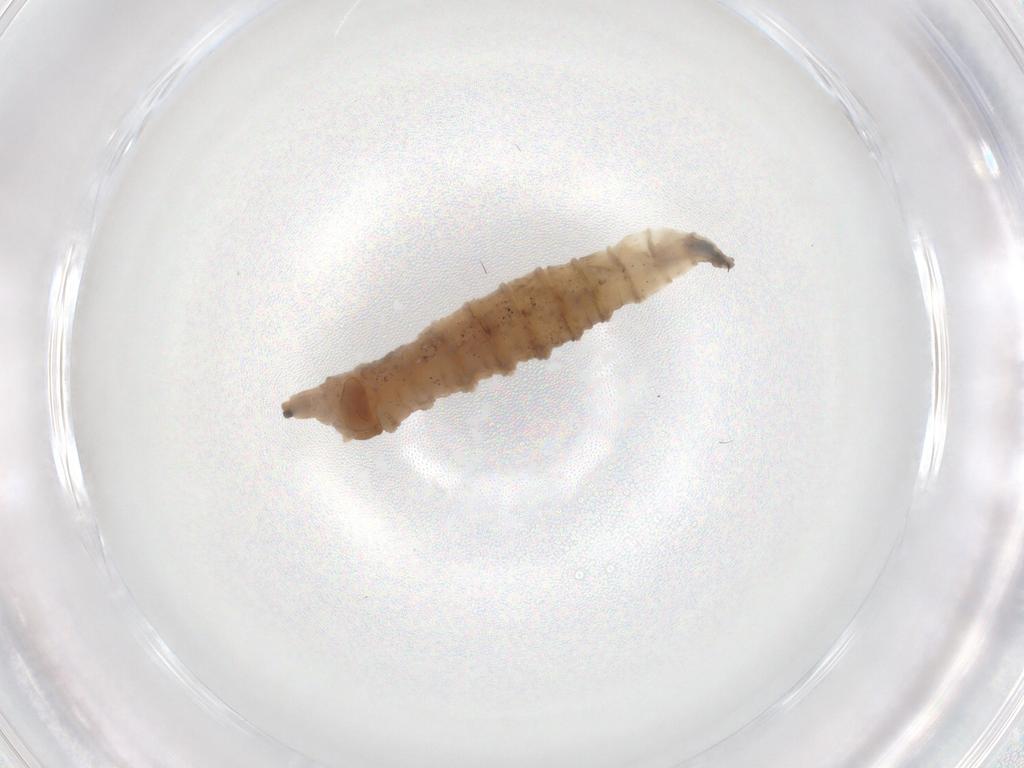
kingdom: Animalia
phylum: Arthropoda
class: Insecta
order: Diptera
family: Drosophilidae
